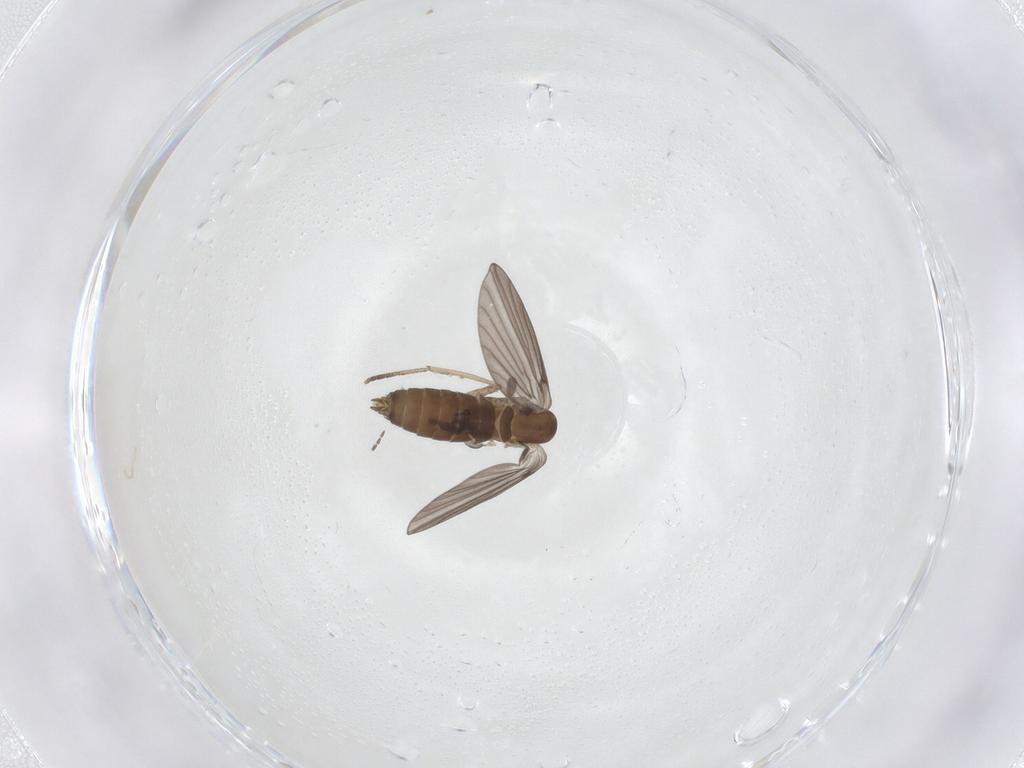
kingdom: Animalia
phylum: Arthropoda
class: Insecta
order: Diptera
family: Psychodidae
